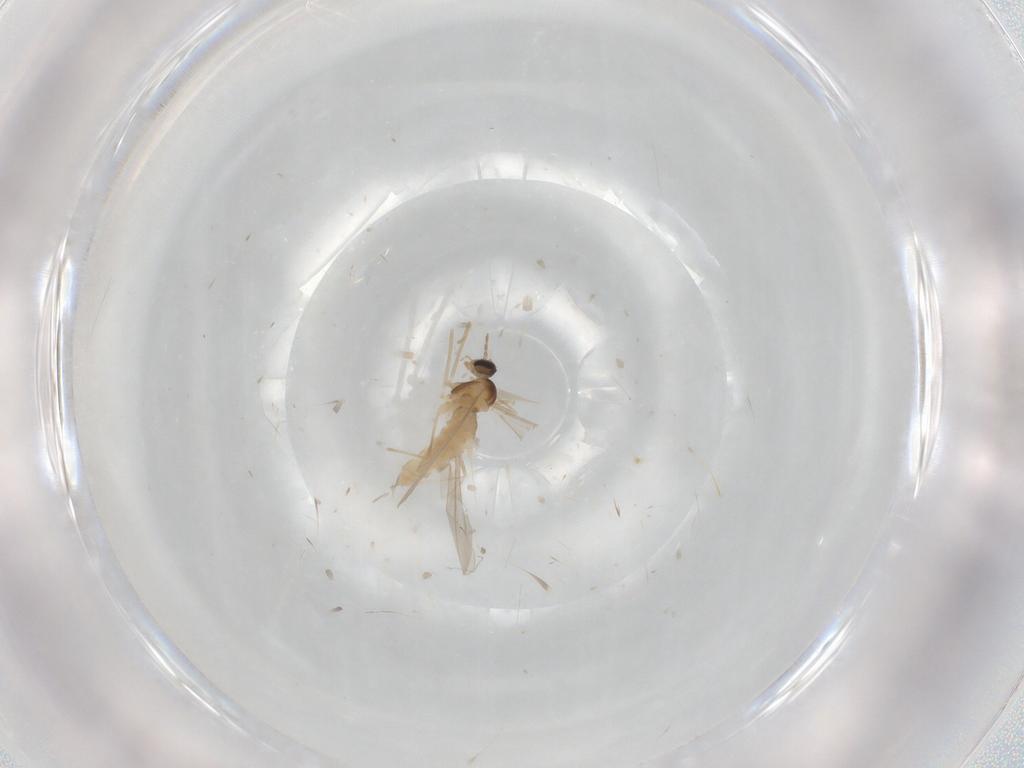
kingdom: Animalia
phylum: Arthropoda
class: Insecta
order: Diptera
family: Cecidomyiidae
